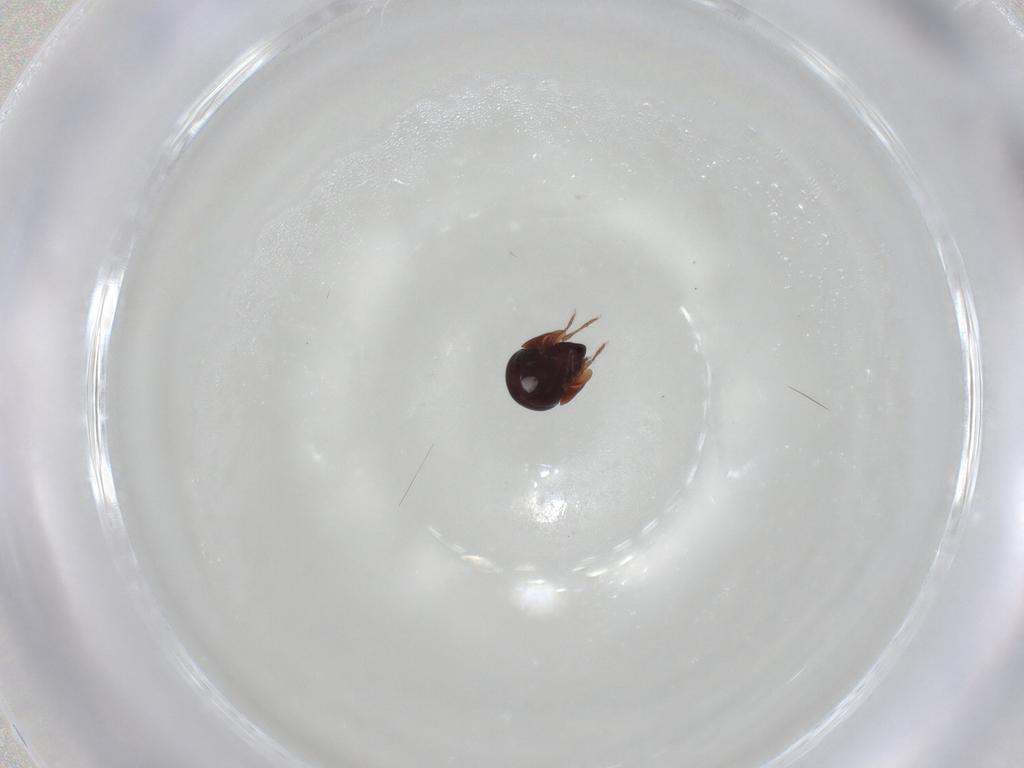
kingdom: Animalia
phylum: Arthropoda
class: Arachnida
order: Sarcoptiformes
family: Galumnidae
